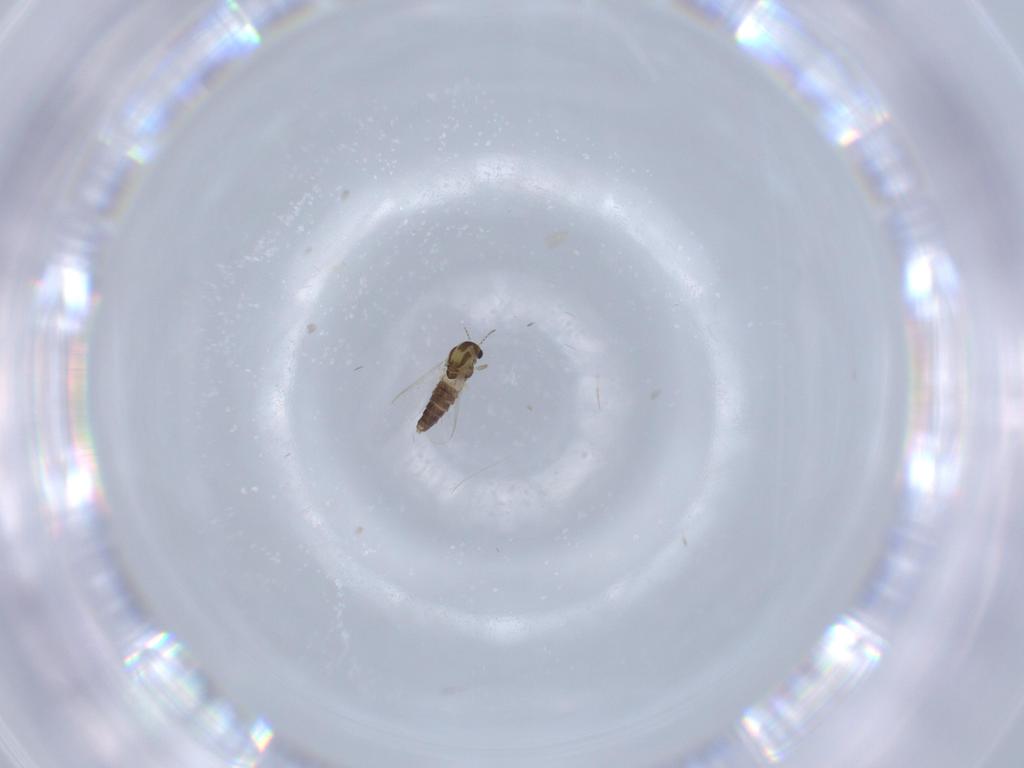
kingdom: Animalia
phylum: Arthropoda
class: Insecta
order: Diptera
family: Chironomidae
